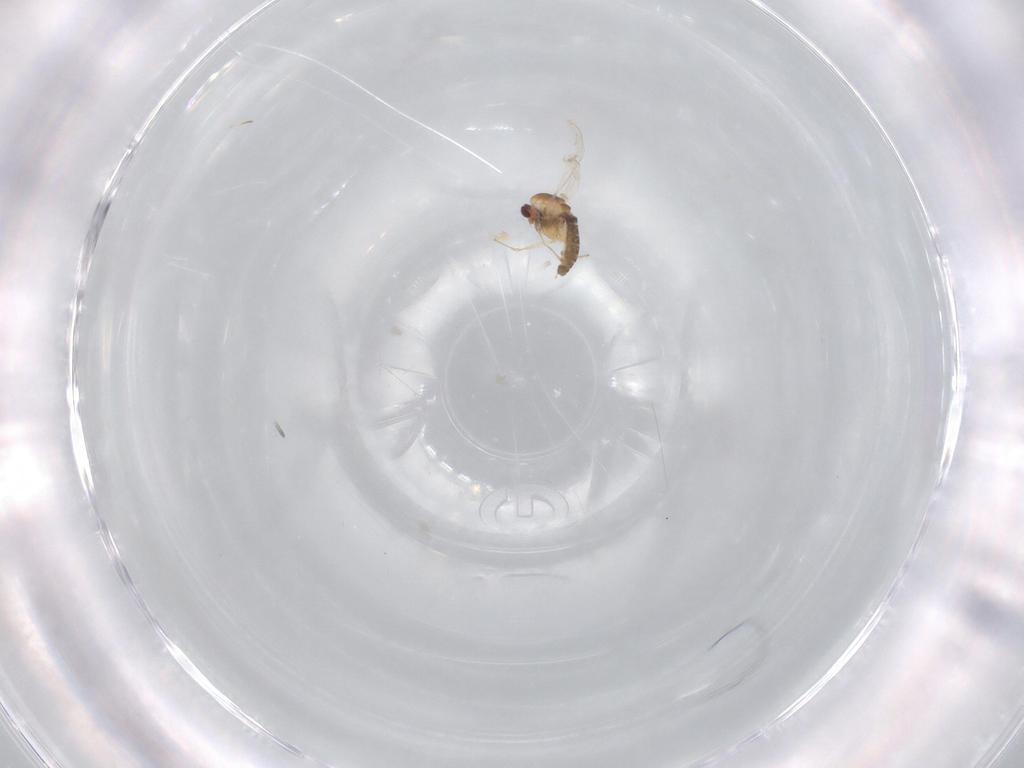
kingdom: Animalia
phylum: Arthropoda
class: Insecta
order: Diptera
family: Chironomidae
